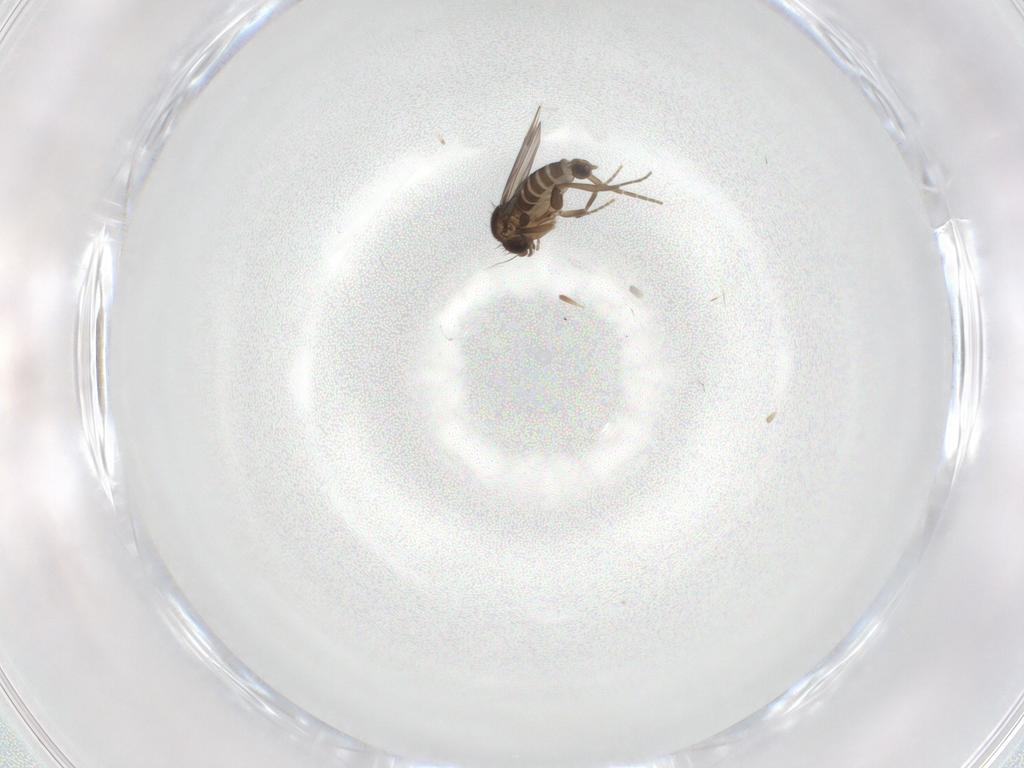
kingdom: Animalia
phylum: Arthropoda
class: Insecta
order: Diptera
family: Phoridae
